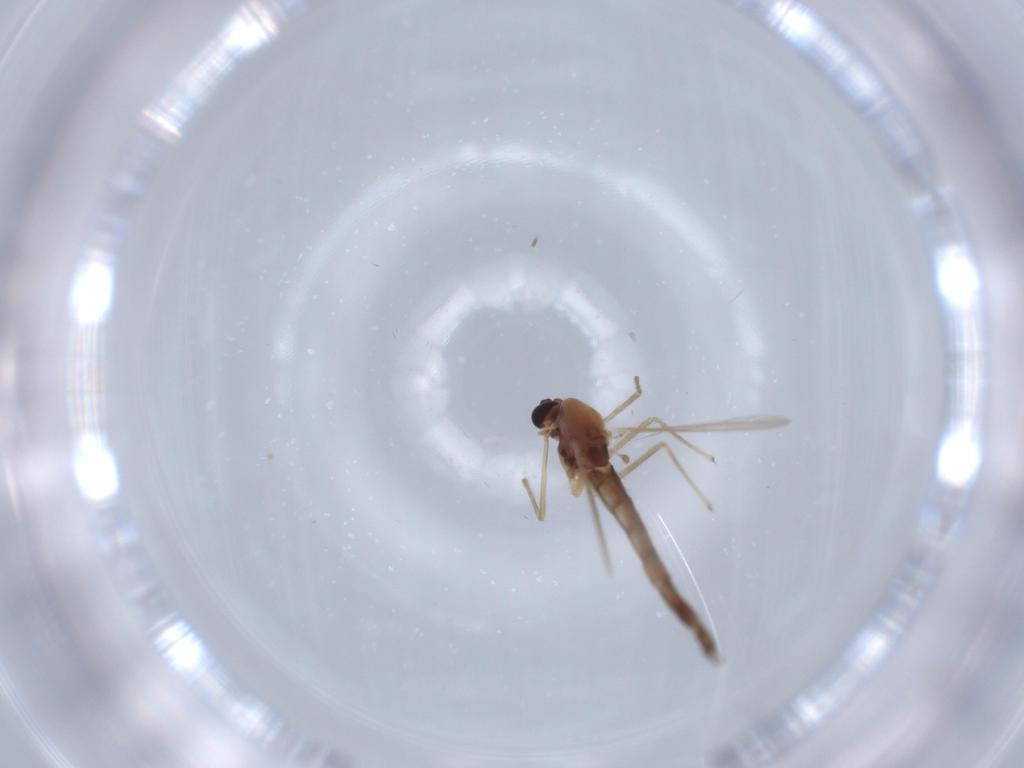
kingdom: Animalia
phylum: Arthropoda
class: Insecta
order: Diptera
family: Chironomidae
